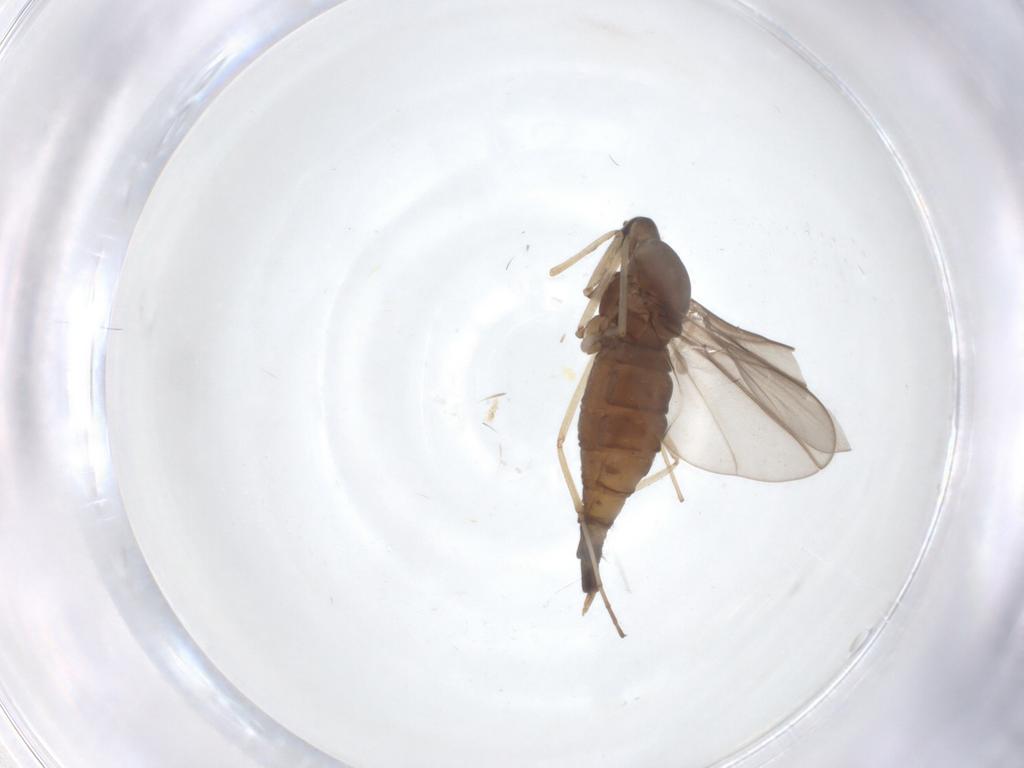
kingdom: Animalia
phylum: Arthropoda
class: Insecta
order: Diptera
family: Cecidomyiidae
